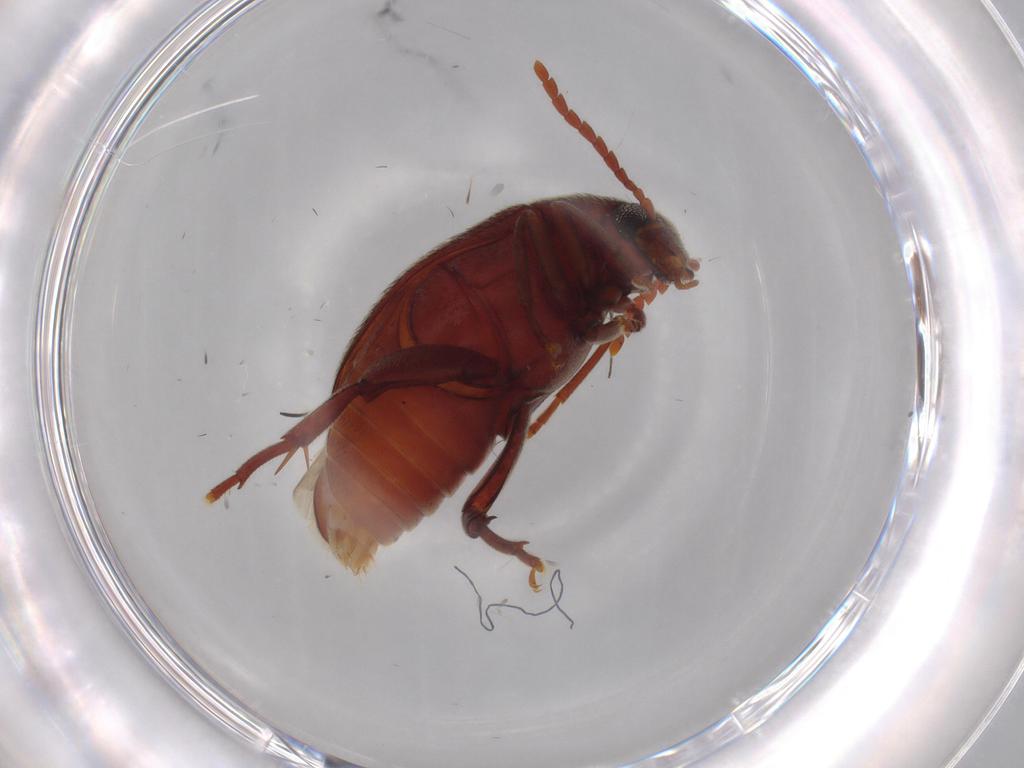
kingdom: Animalia
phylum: Arthropoda
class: Insecta
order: Coleoptera
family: Chrysomelidae
